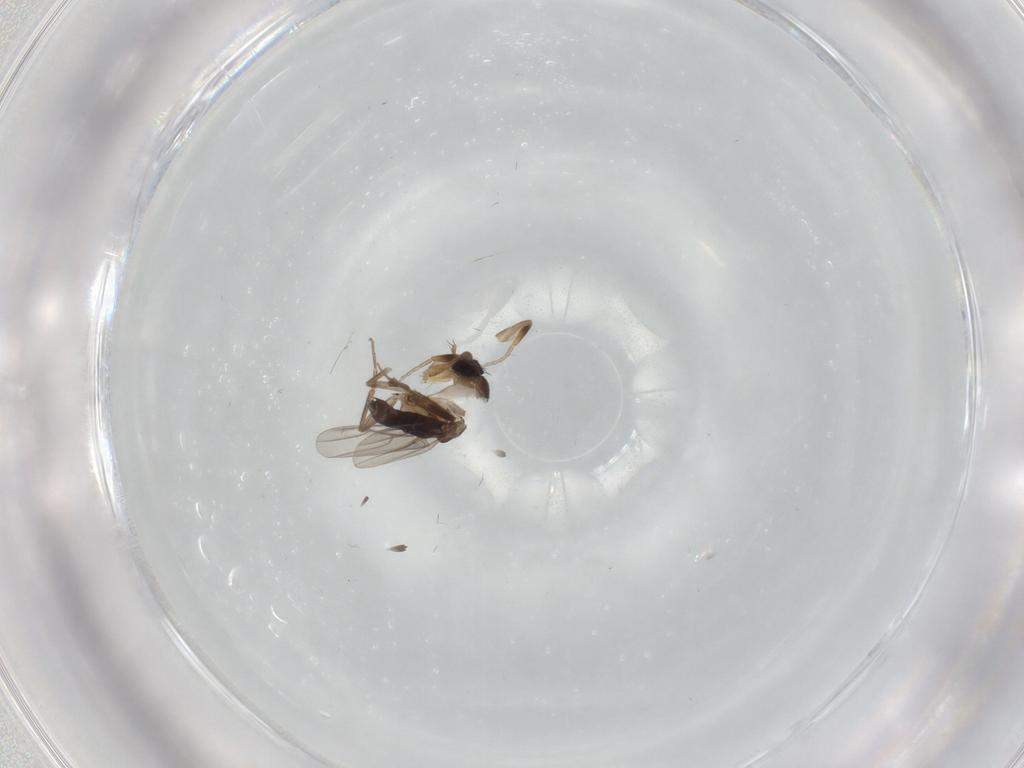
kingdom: Animalia
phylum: Arthropoda
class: Insecta
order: Diptera
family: Phoridae
